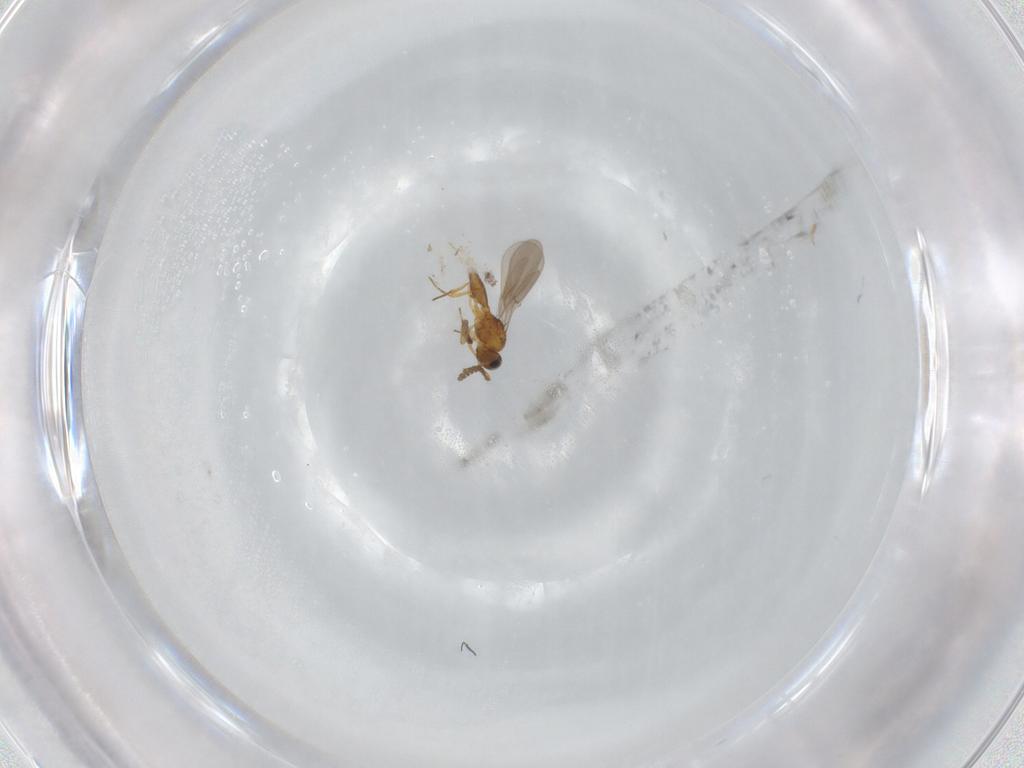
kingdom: Animalia
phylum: Arthropoda
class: Insecta
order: Hymenoptera
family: Platygastridae
